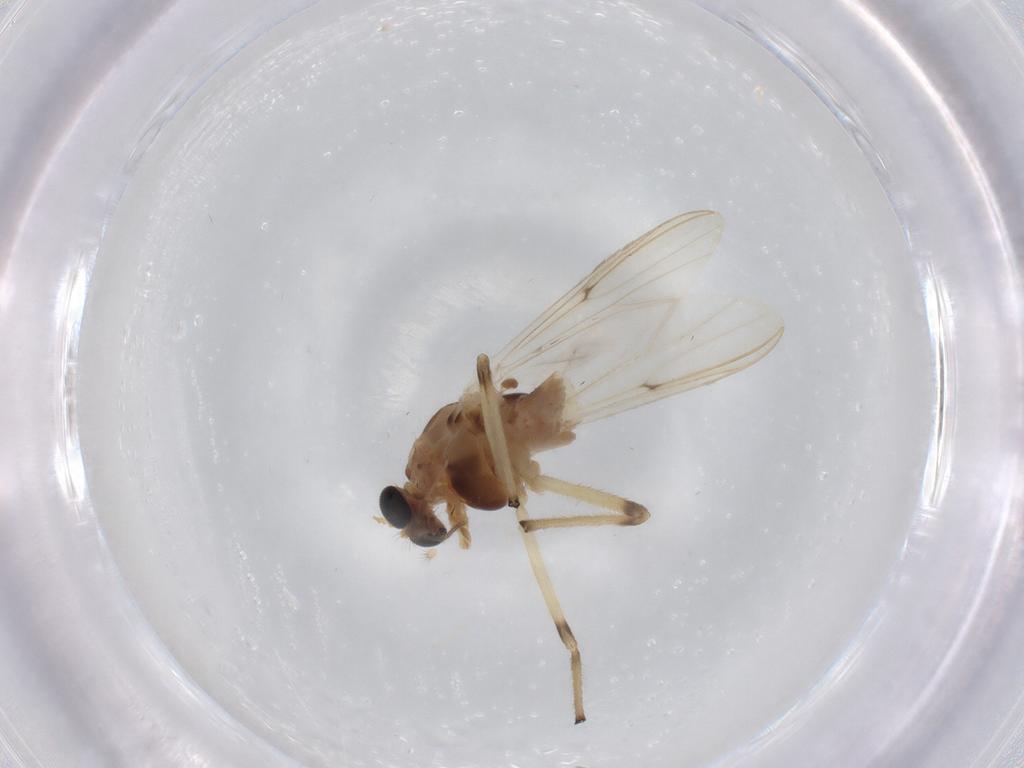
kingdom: Animalia
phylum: Arthropoda
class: Insecta
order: Diptera
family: Chironomidae
